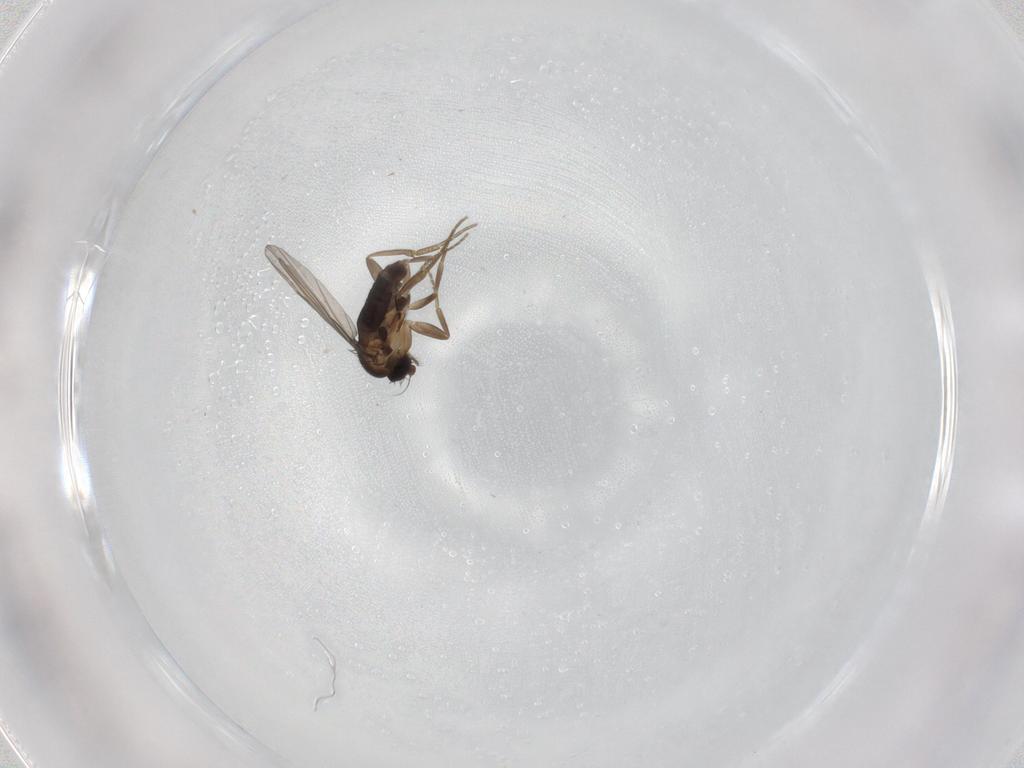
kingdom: Animalia
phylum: Arthropoda
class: Insecta
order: Diptera
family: Phoridae
